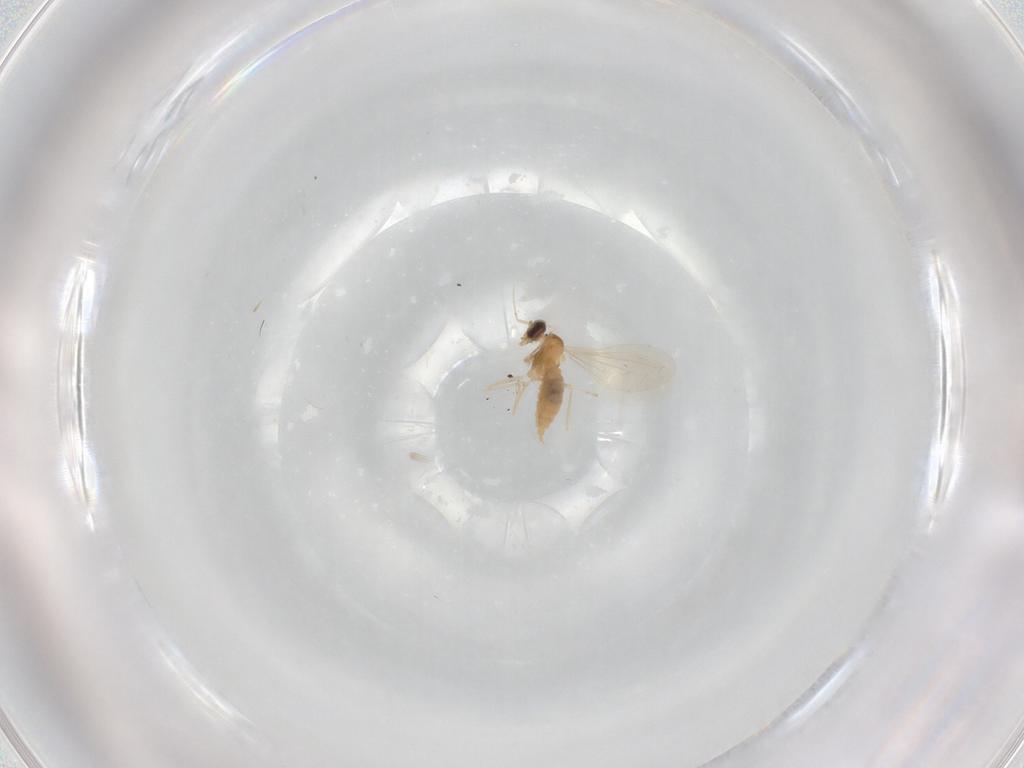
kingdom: Animalia
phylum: Arthropoda
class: Insecta
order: Diptera
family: Cecidomyiidae
